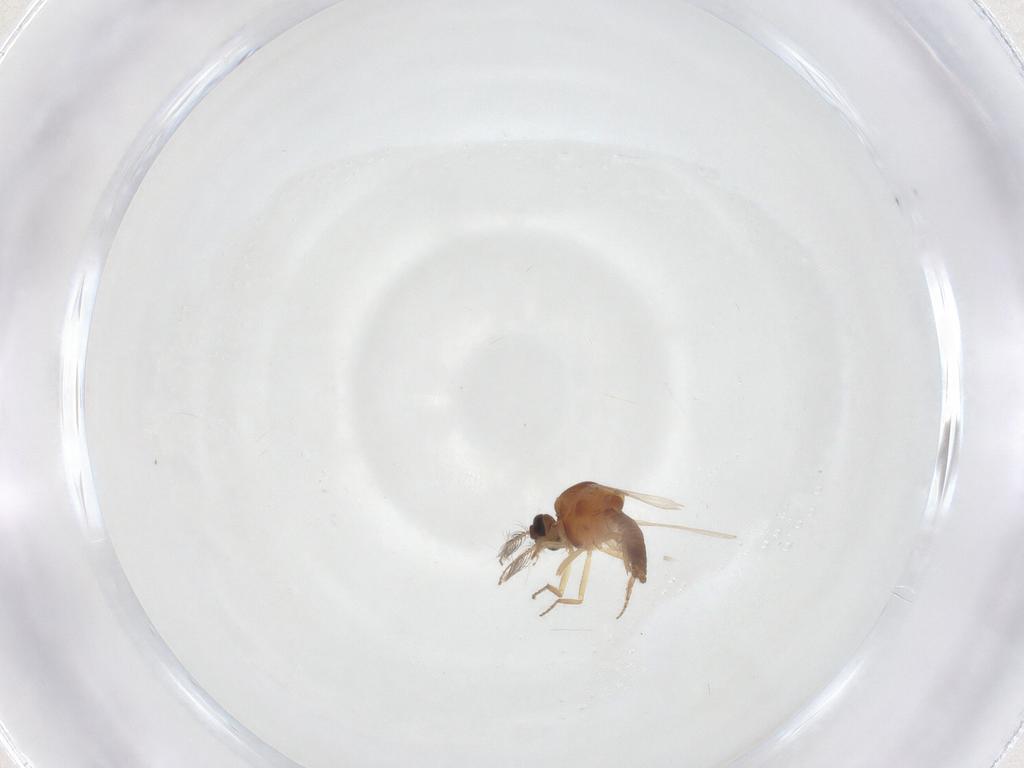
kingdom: Animalia
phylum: Arthropoda
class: Insecta
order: Diptera
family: Ceratopogonidae
